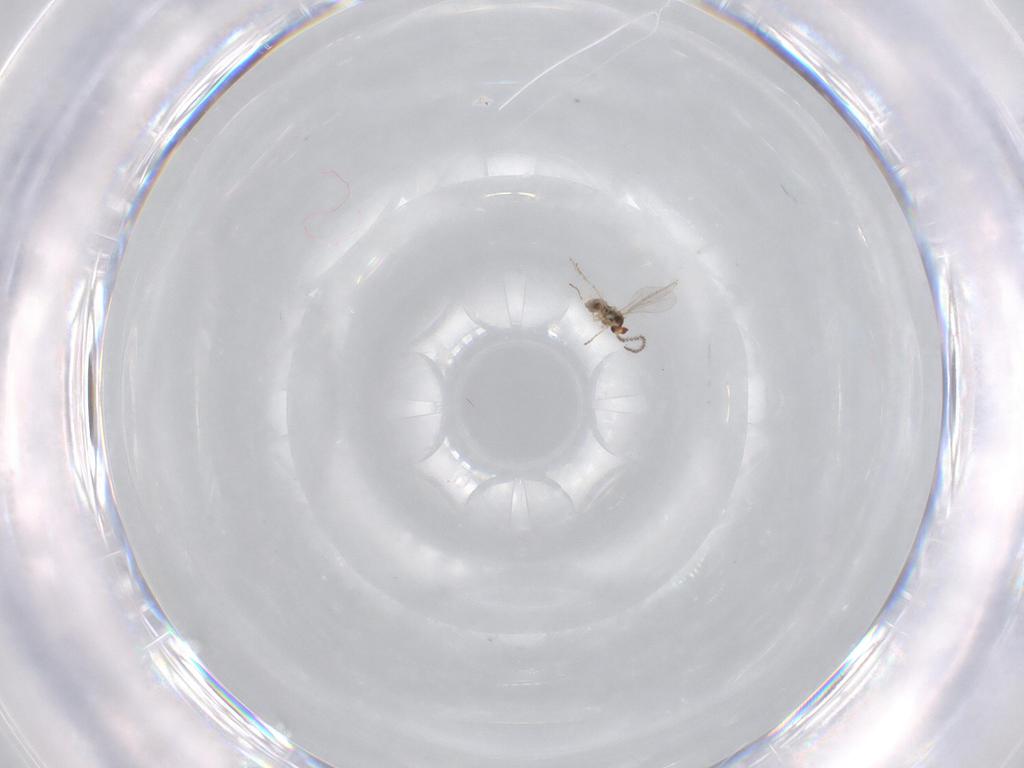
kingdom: Animalia
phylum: Arthropoda
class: Insecta
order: Diptera
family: Cecidomyiidae
